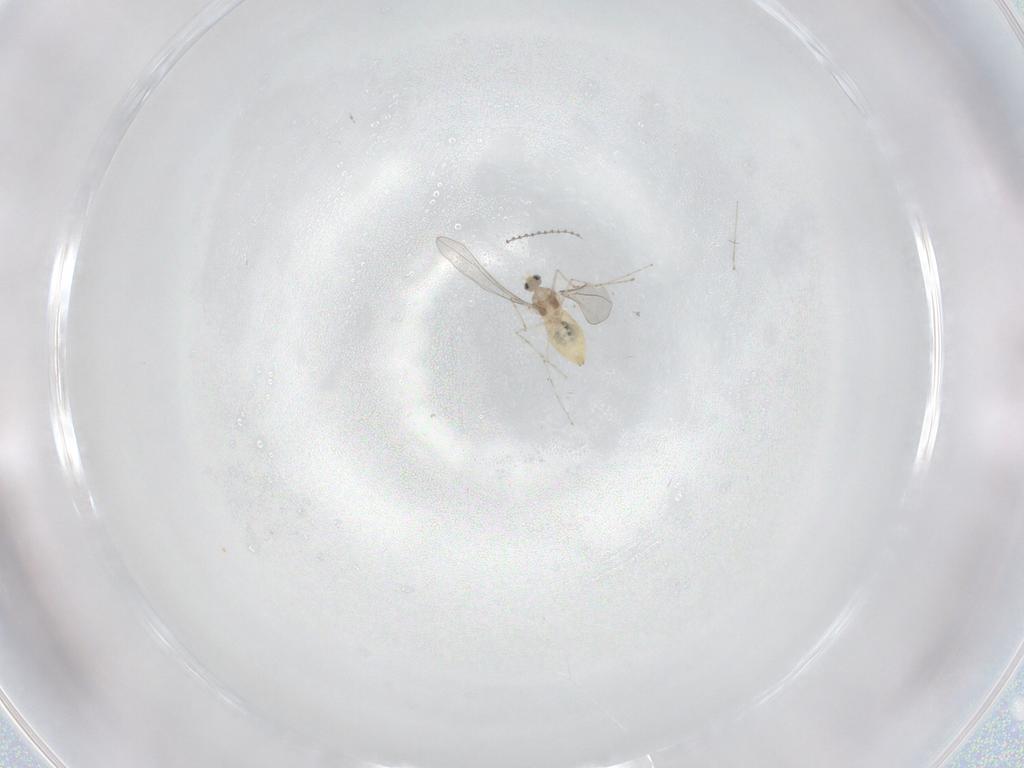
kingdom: Animalia
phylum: Arthropoda
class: Insecta
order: Diptera
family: Cecidomyiidae
